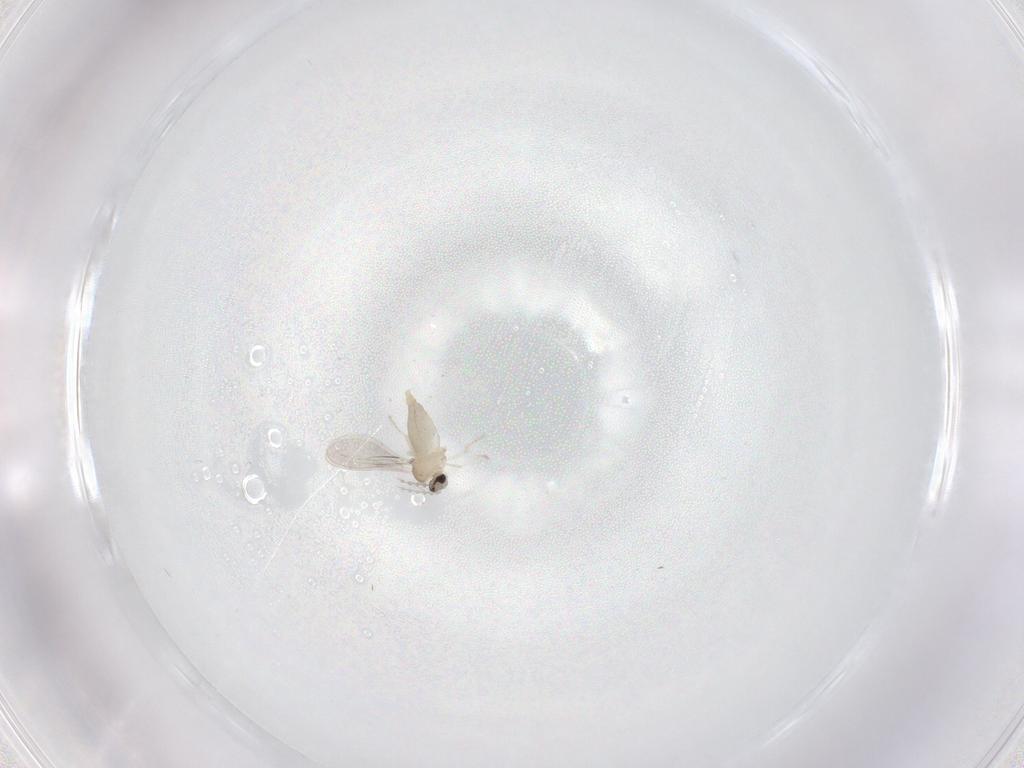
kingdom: Animalia
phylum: Arthropoda
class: Insecta
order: Diptera
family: Cecidomyiidae
